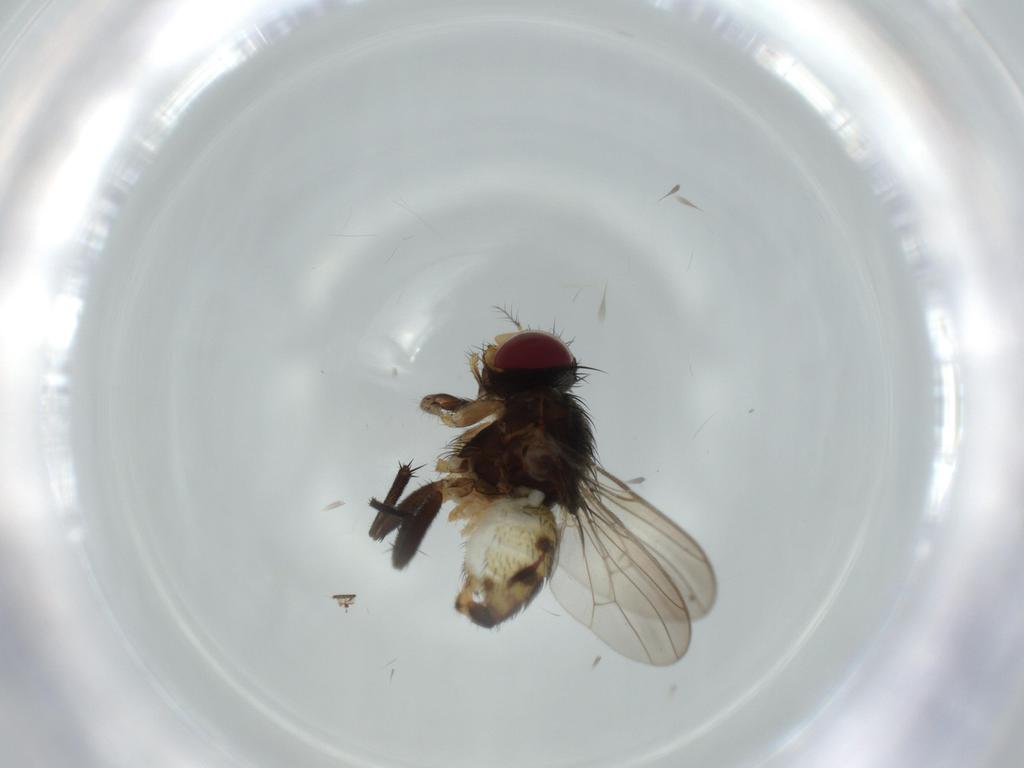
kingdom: Animalia
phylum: Arthropoda
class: Insecta
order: Diptera
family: Anthomyiidae
